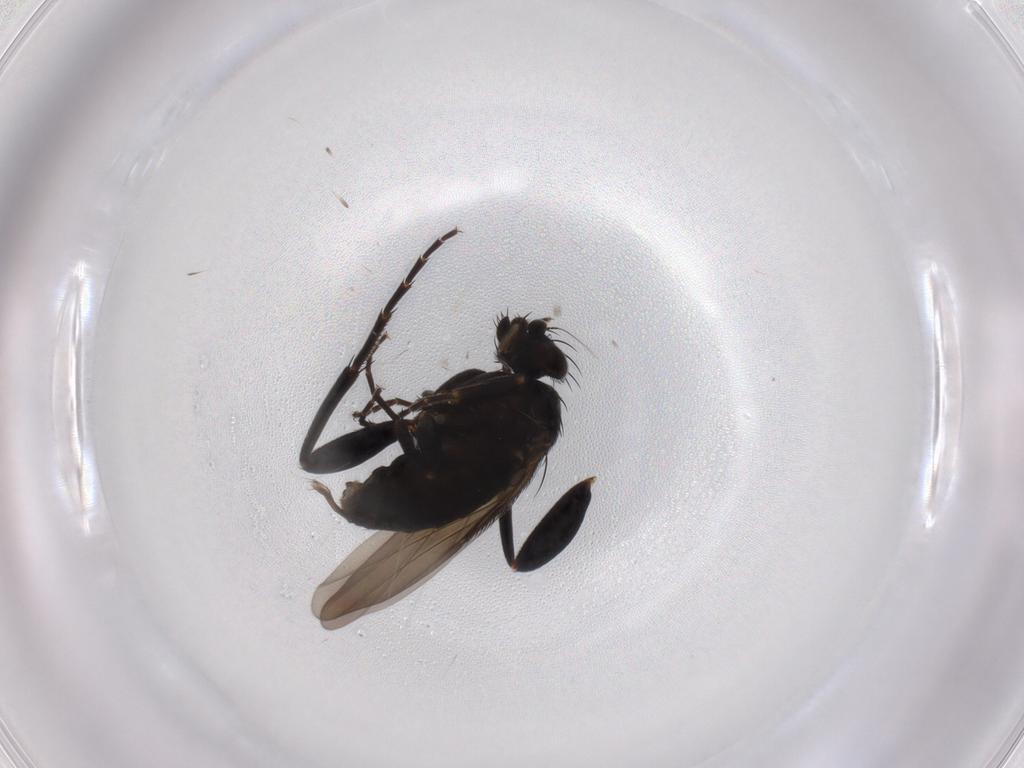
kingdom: Animalia
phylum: Arthropoda
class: Insecta
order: Diptera
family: Phoridae
